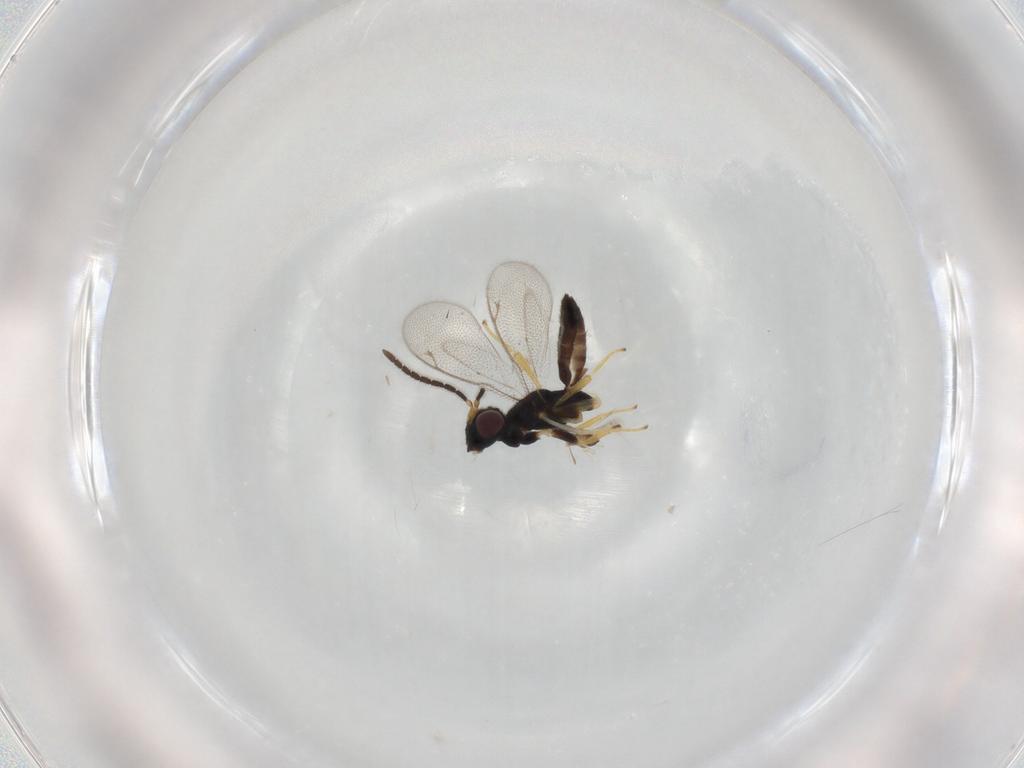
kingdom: Animalia
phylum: Arthropoda
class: Insecta
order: Hymenoptera
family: Pteromalidae
